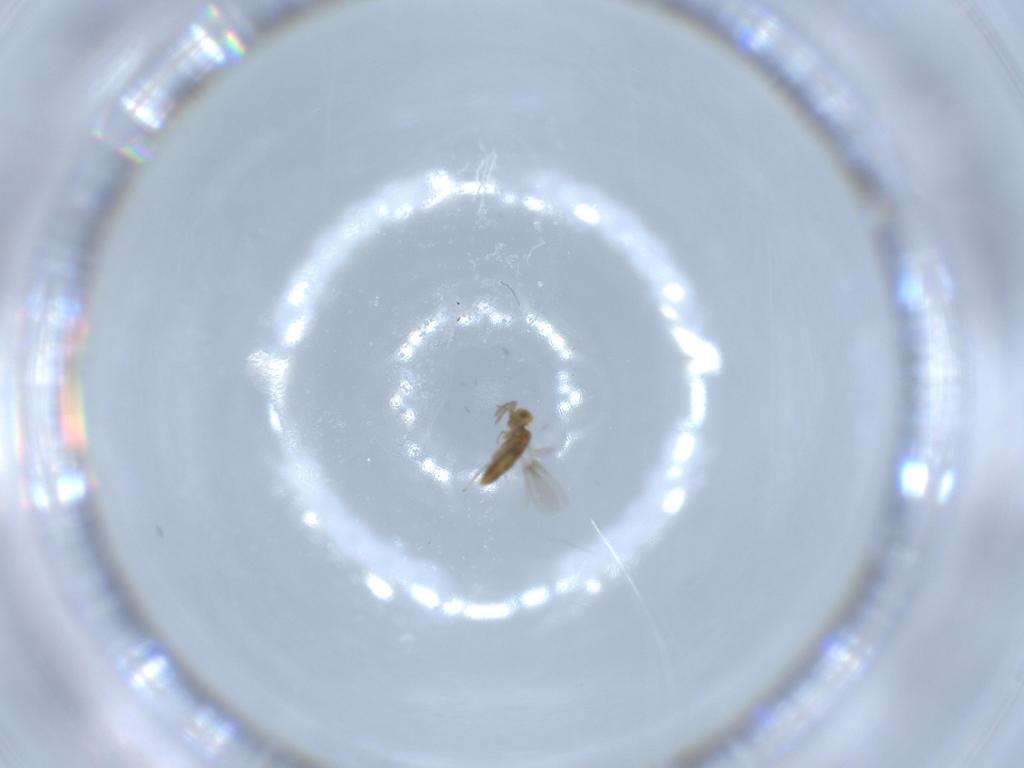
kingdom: Animalia
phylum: Arthropoda
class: Insecta
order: Hymenoptera
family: Aphelinidae
